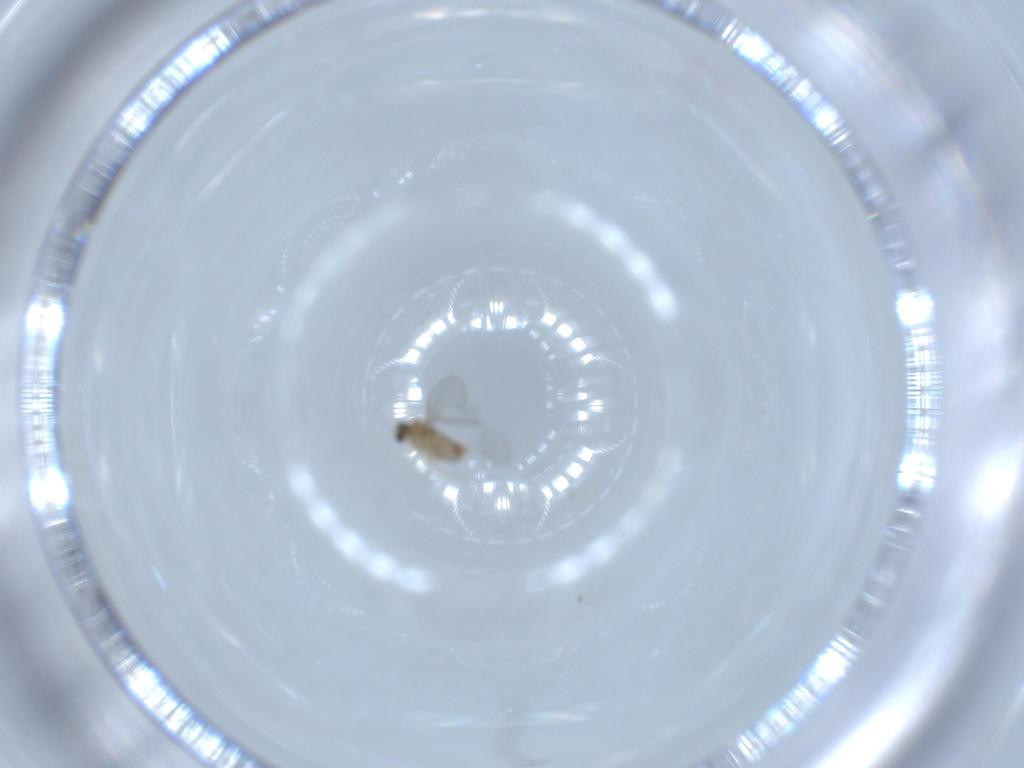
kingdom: Animalia
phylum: Arthropoda
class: Insecta
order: Diptera
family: Cecidomyiidae
